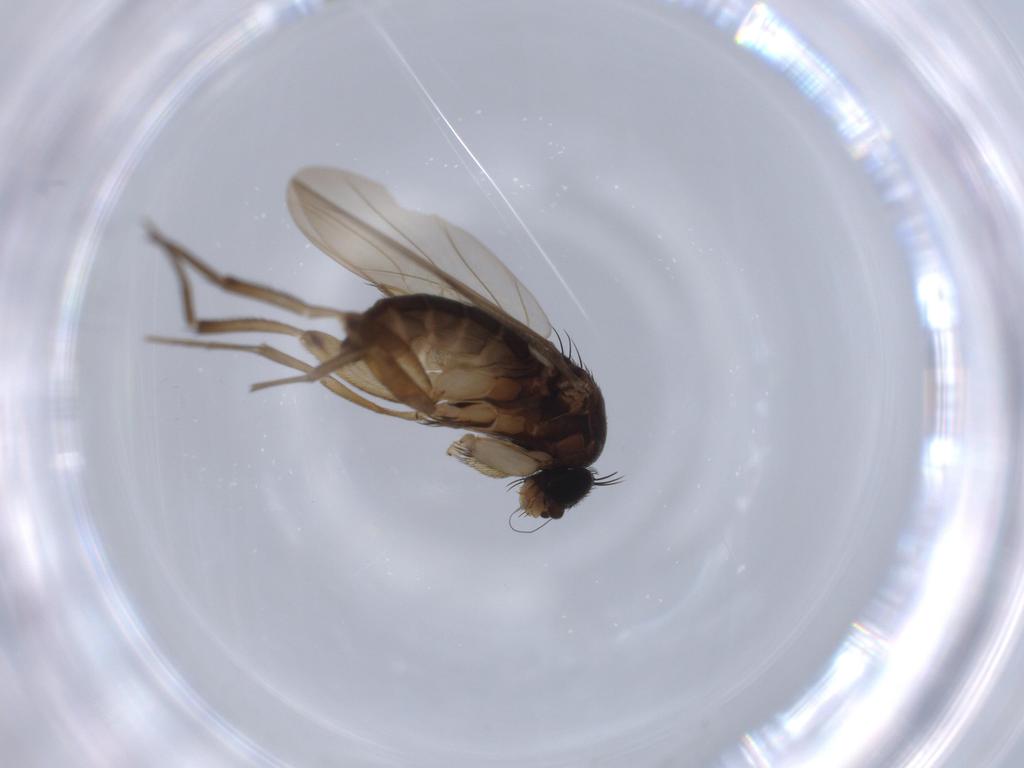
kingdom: Animalia
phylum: Arthropoda
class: Insecta
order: Diptera
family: Phoridae
